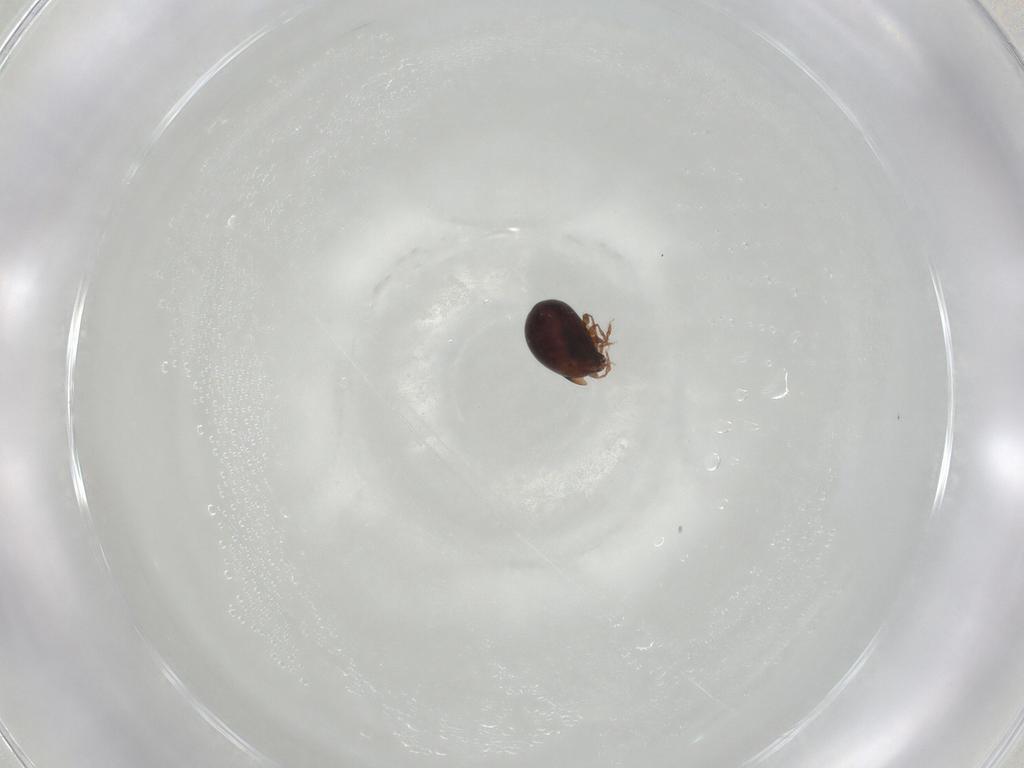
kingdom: Animalia
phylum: Arthropoda
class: Arachnida
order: Sarcoptiformes
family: Galumnidae
